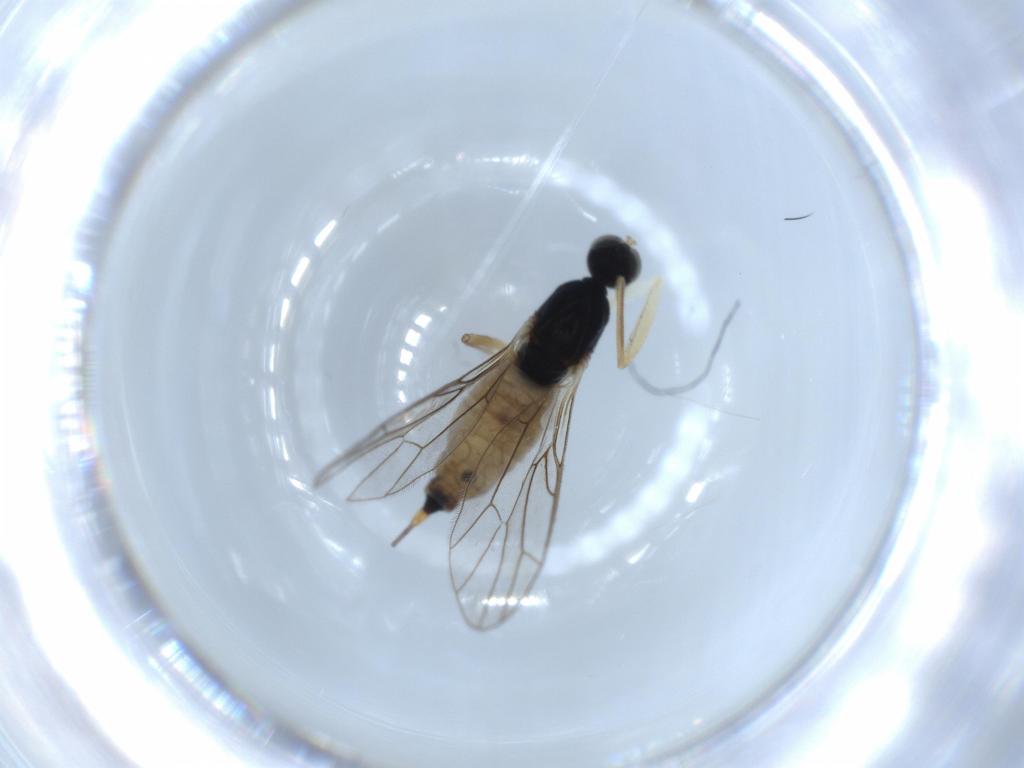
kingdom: Animalia
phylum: Arthropoda
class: Insecta
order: Diptera
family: Empididae
